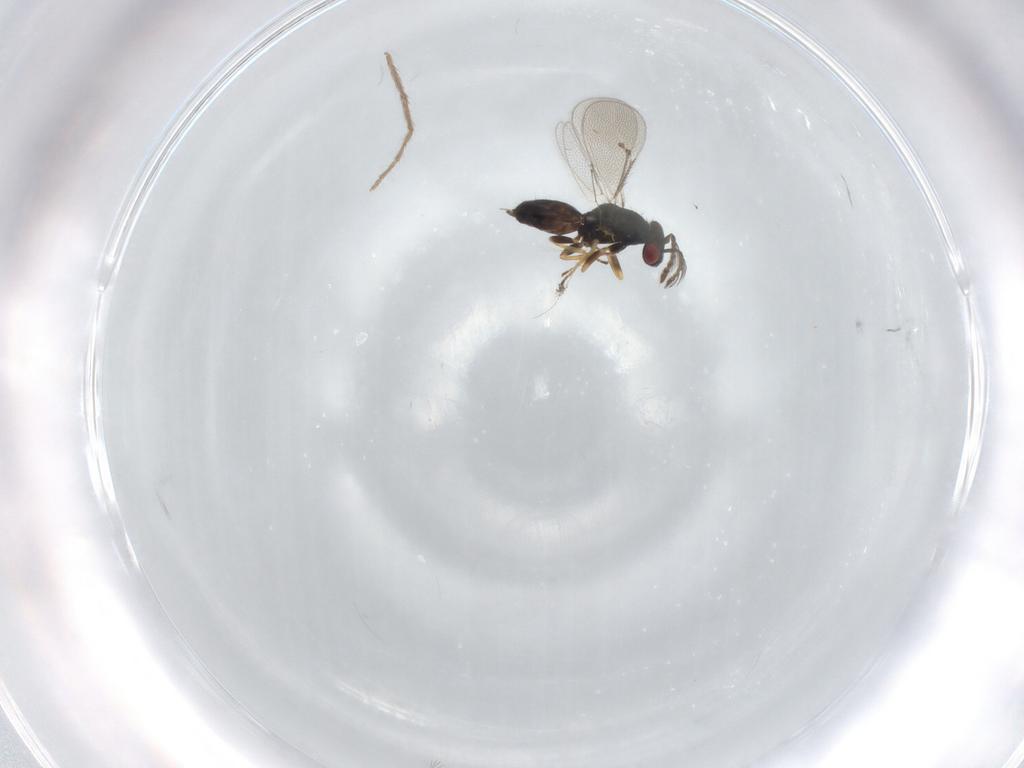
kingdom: Animalia
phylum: Arthropoda
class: Insecta
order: Hymenoptera
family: Eulophidae
